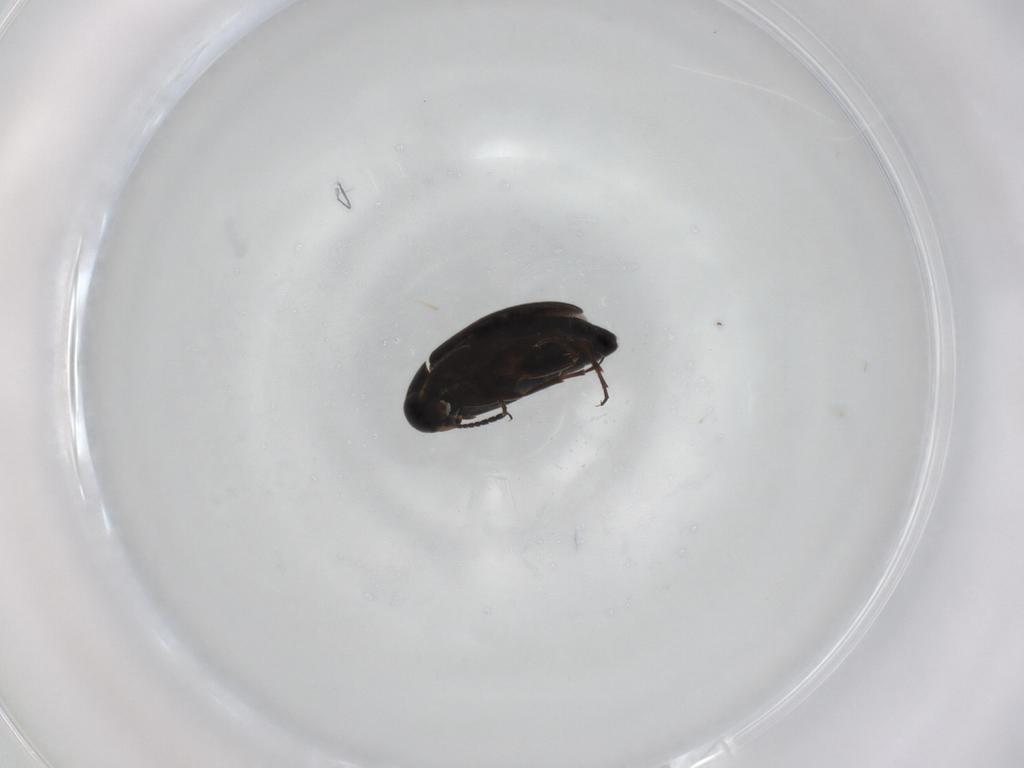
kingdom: Animalia
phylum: Arthropoda
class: Insecta
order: Coleoptera
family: Scraptiidae
